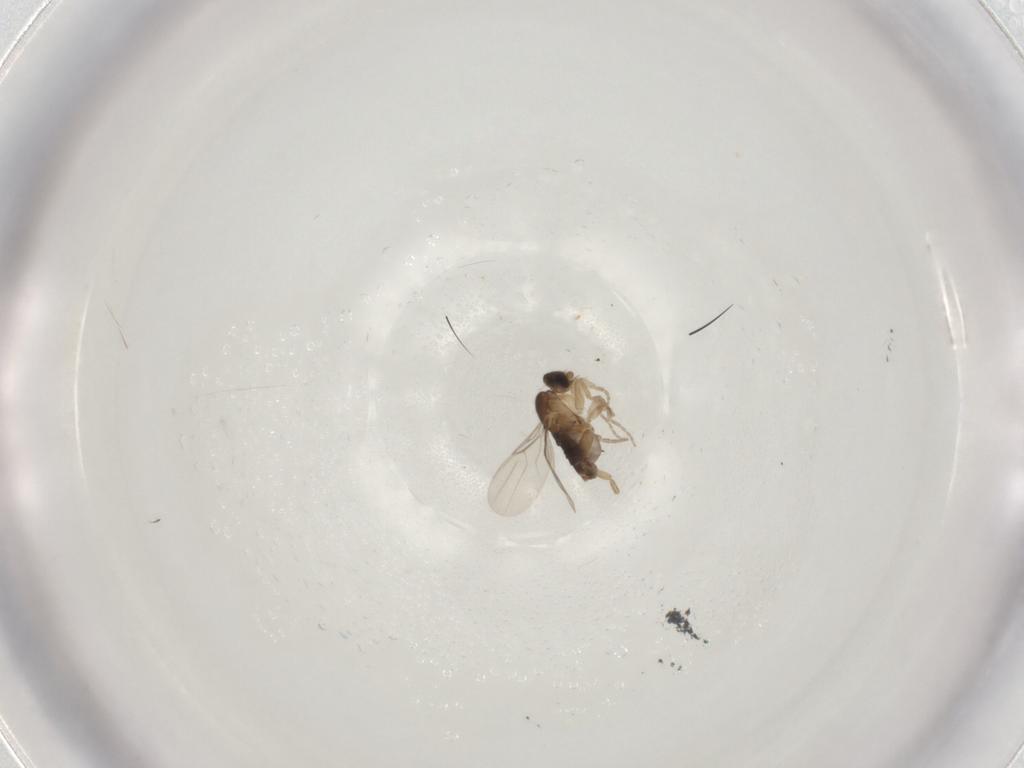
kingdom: Animalia
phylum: Arthropoda
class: Insecta
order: Diptera
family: Phoridae
